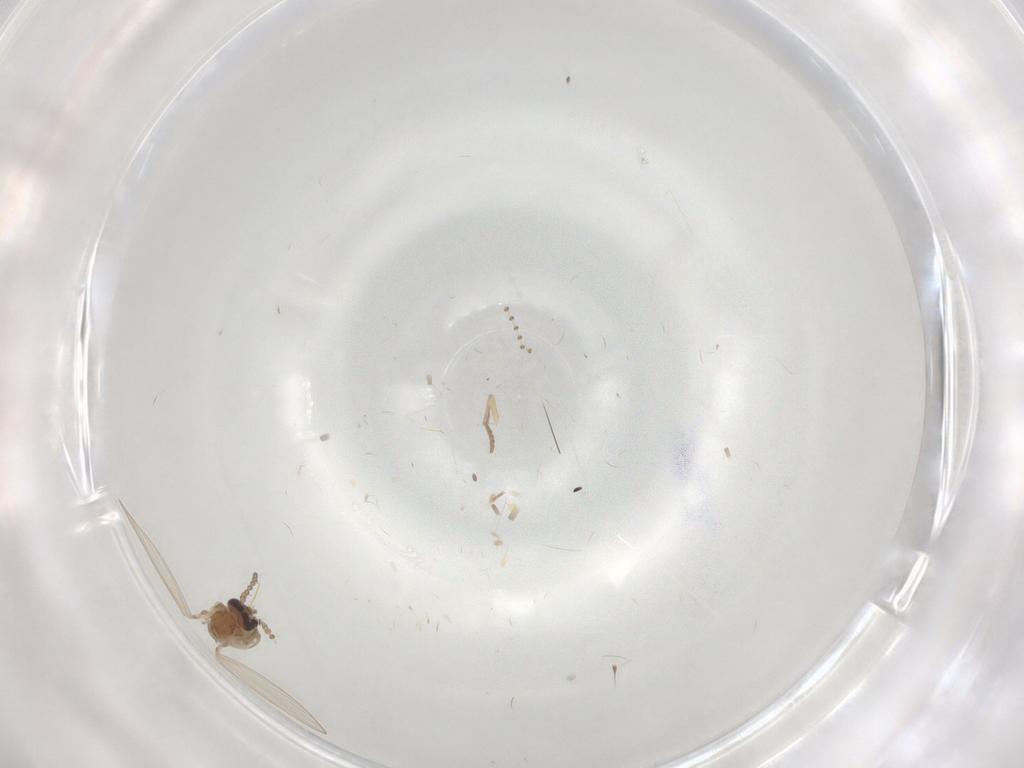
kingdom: Animalia
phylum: Arthropoda
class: Insecta
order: Diptera
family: Psychodidae
